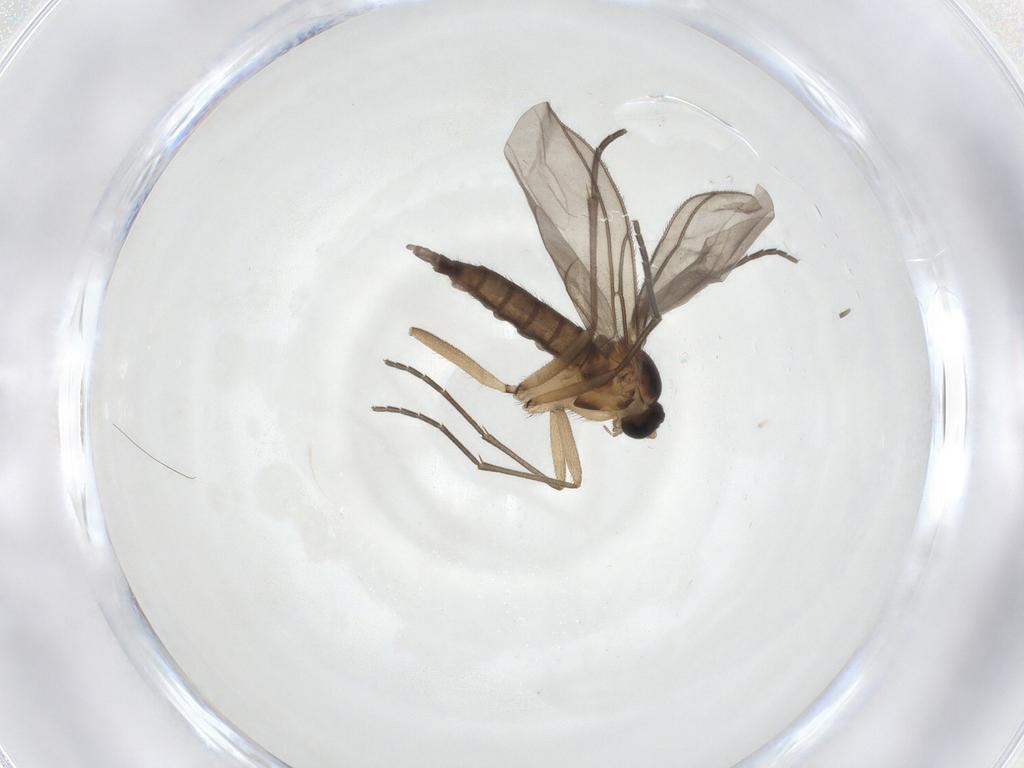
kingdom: Animalia
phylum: Arthropoda
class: Insecta
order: Diptera
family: Sciaridae
